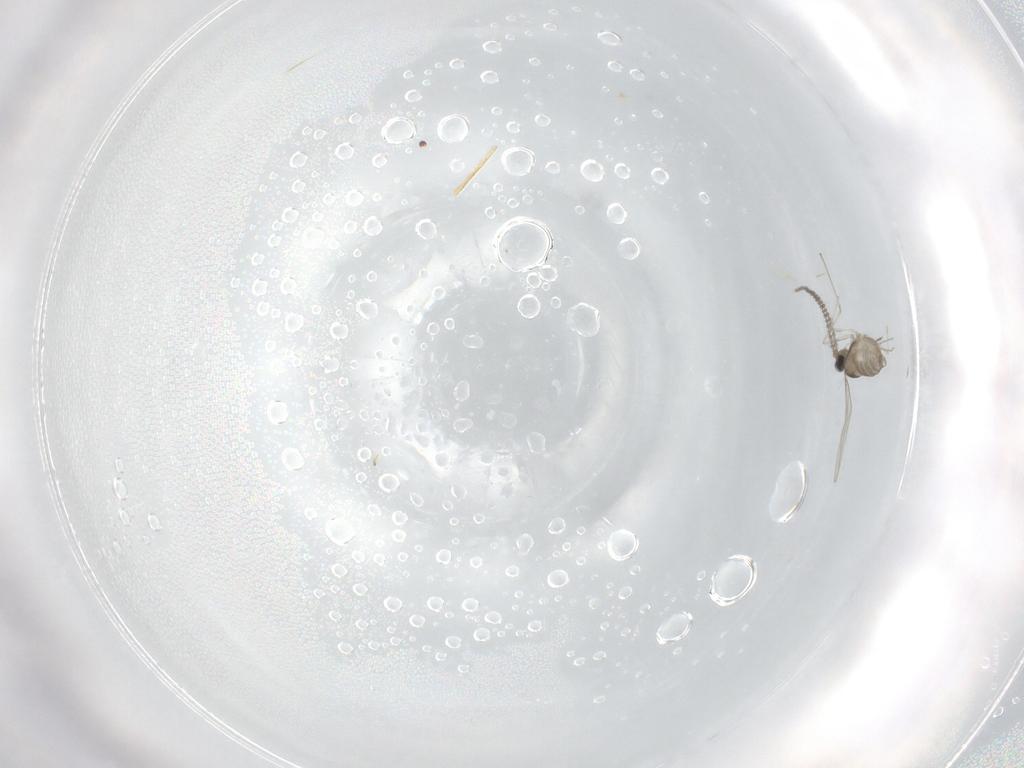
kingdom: Animalia
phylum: Arthropoda
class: Insecta
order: Diptera
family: Cecidomyiidae
